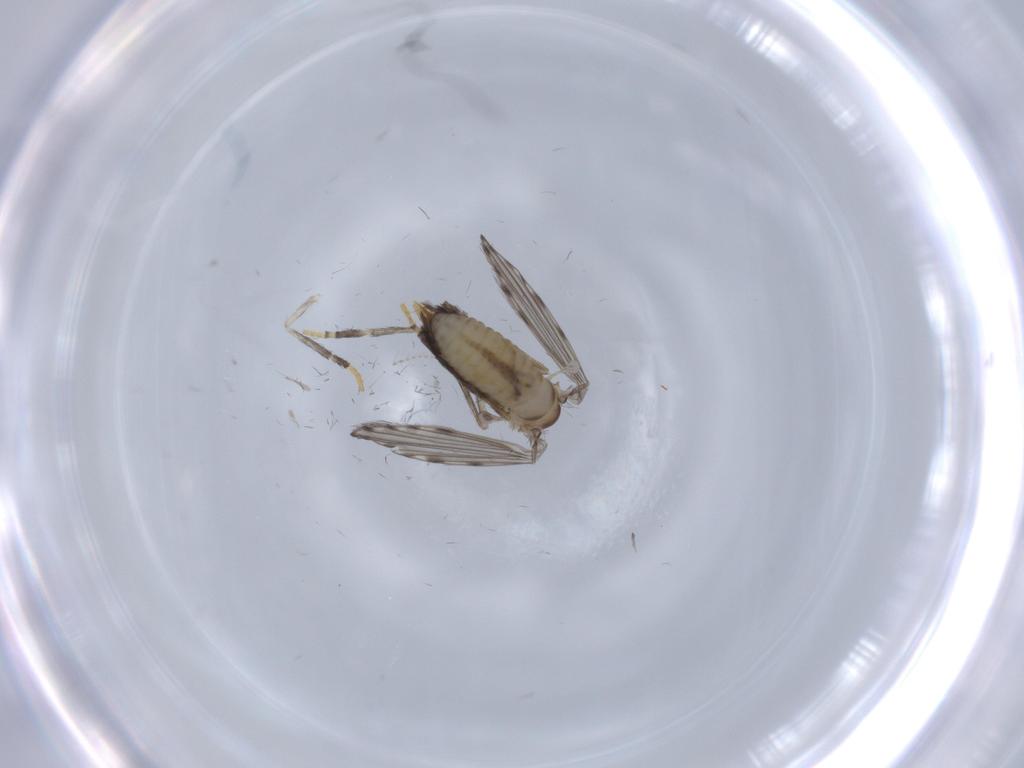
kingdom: Animalia
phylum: Arthropoda
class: Insecta
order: Diptera
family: Psychodidae
